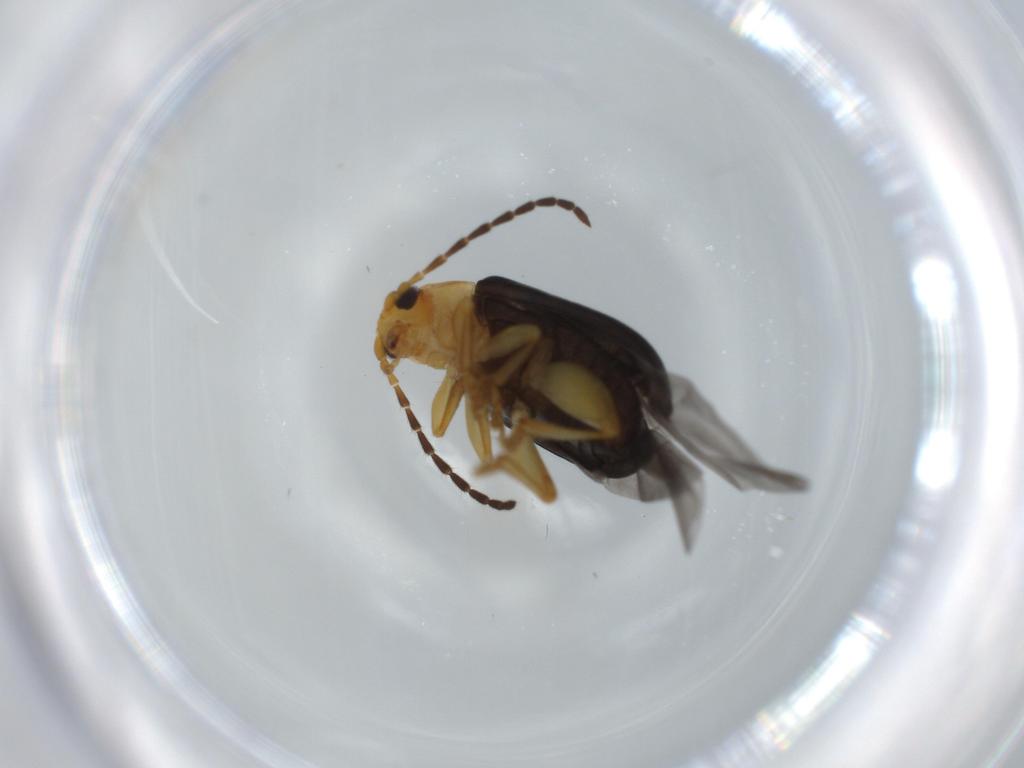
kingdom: Animalia
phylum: Arthropoda
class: Insecta
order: Coleoptera
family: Chrysomelidae
